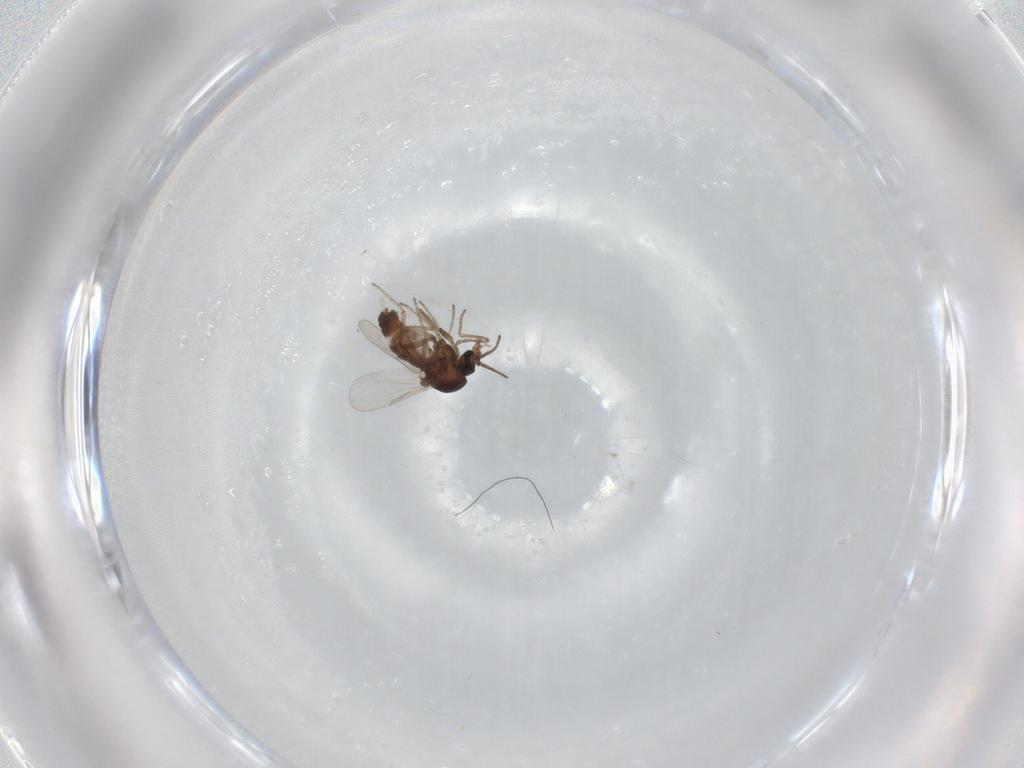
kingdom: Animalia
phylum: Arthropoda
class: Insecta
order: Diptera
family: Ceratopogonidae
